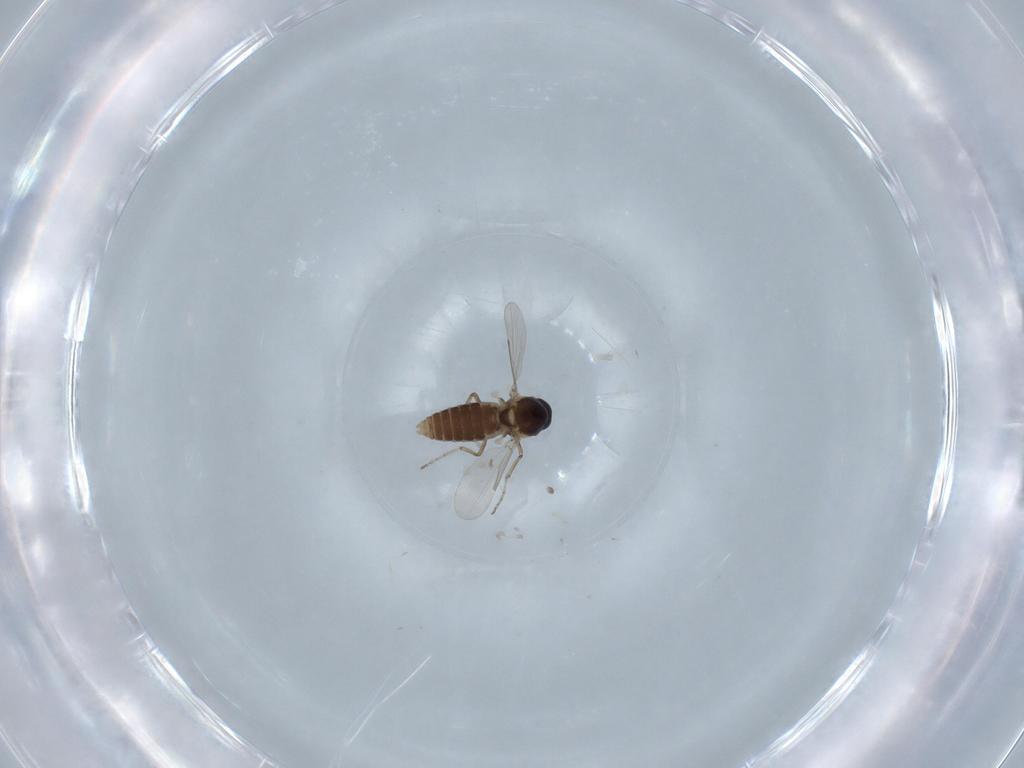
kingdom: Animalia
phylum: Arthropoda
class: Insecta
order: Diptera
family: Ceratopogonidae
